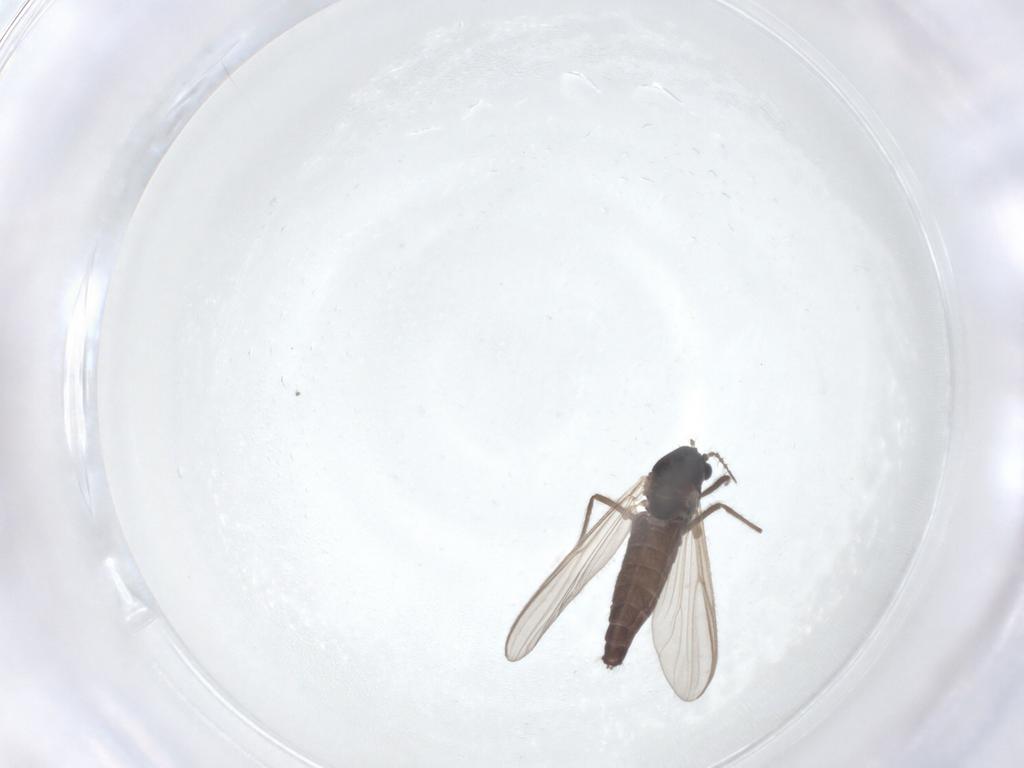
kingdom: Animalia
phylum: Arthropoda
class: Insecta
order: Diptera
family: Chironomidae
